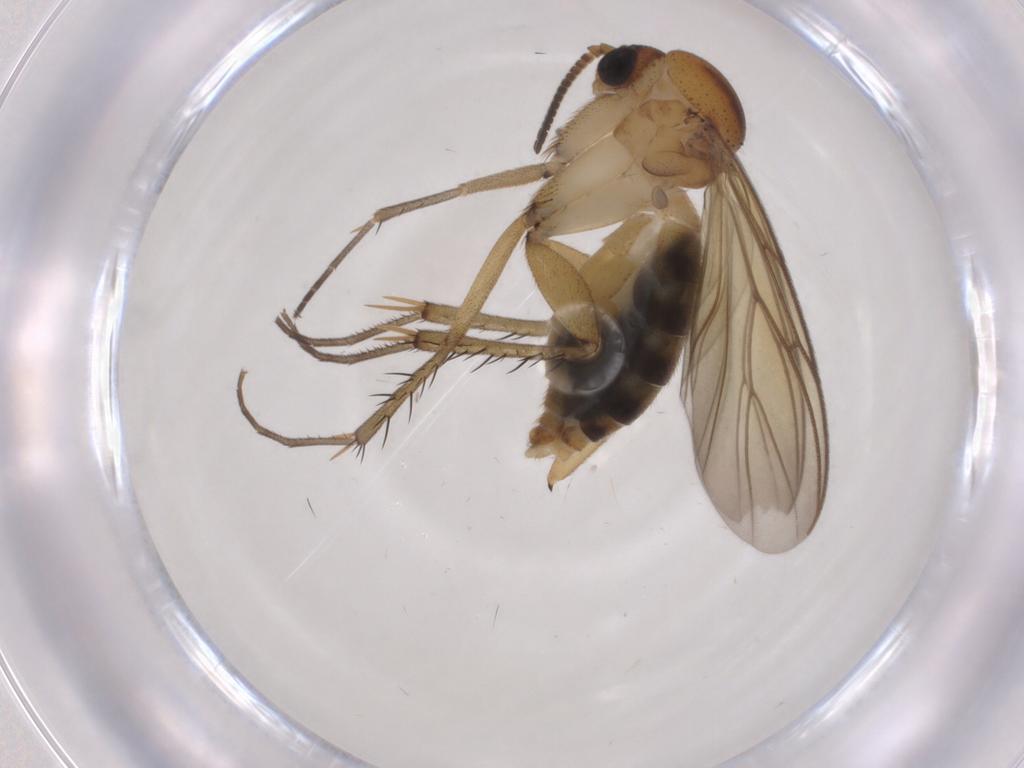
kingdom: Animalia
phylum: Arthropoda
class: Insecta
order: Diptera
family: Mycetophilidae
